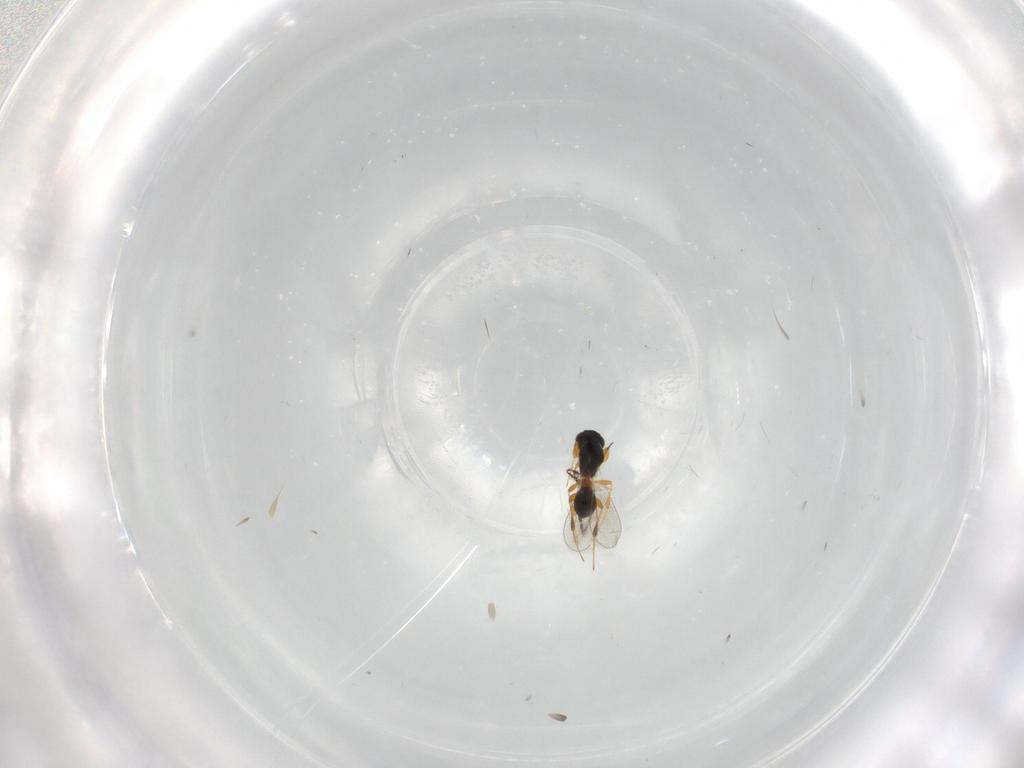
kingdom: Animalia
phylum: Arthropoda
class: Insecta
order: Hymenoptera
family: Platygastridae
